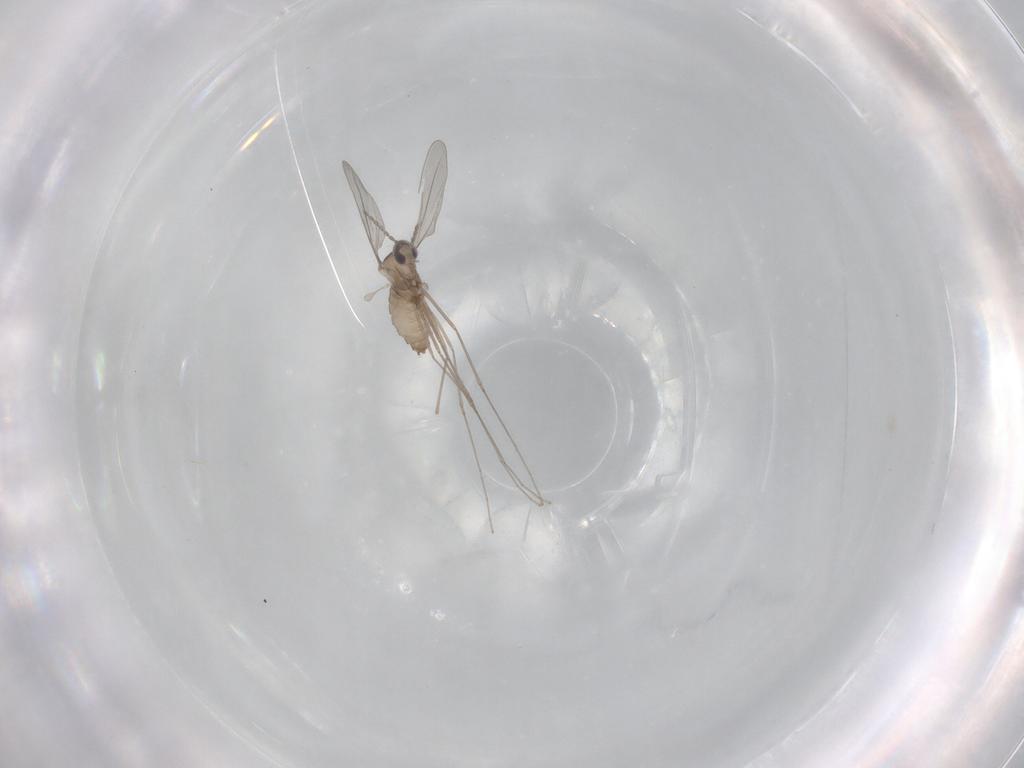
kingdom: Animalia
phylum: Arthropoda
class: Insecta
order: Diptera
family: Cecidomyiidae
